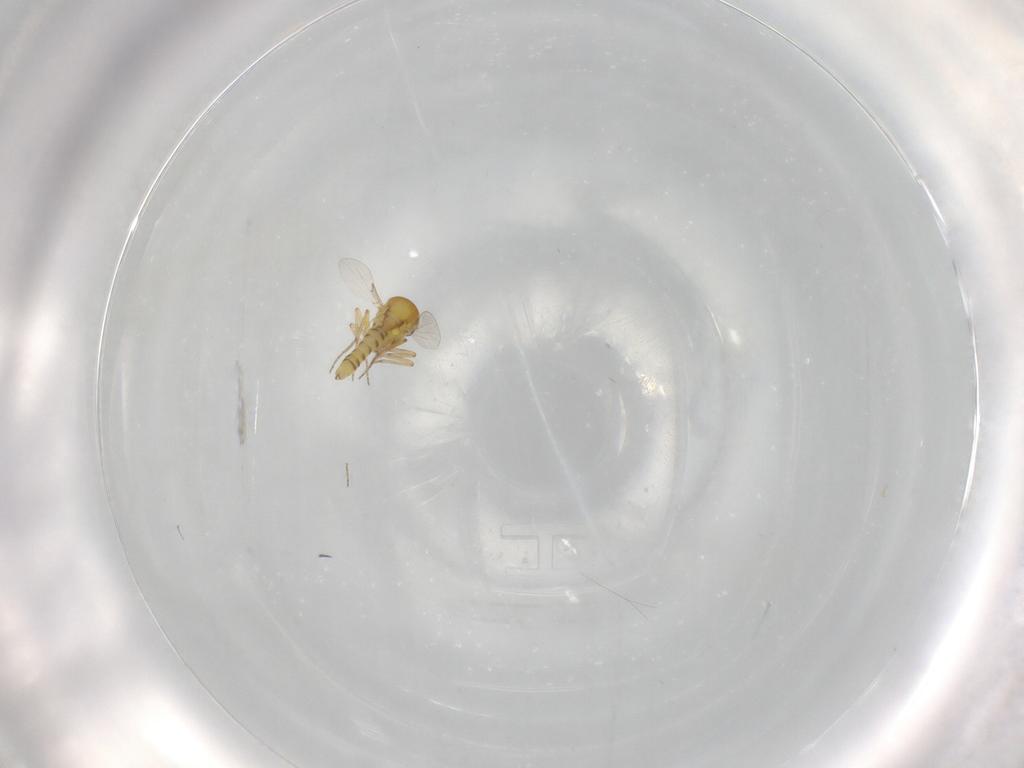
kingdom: Animalia
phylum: Arthropoda
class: Insecta
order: Diptera
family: Ceratopogonidae
